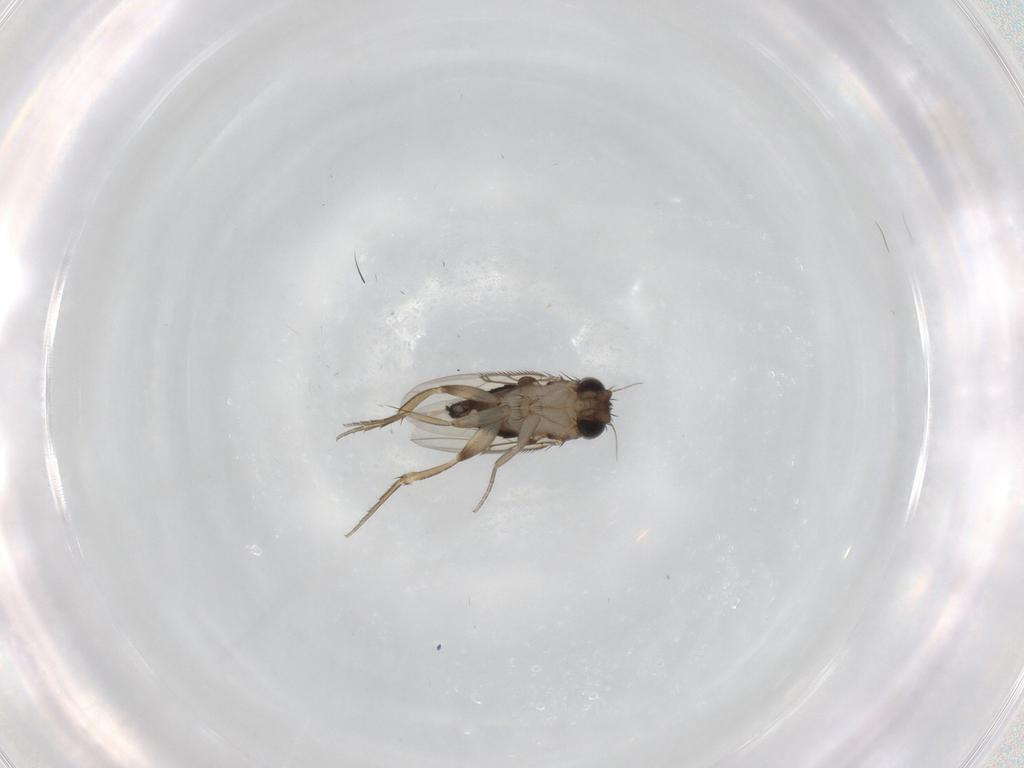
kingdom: Animalia
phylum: Arthropoda
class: Insecta
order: Diptera
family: Phoridae
